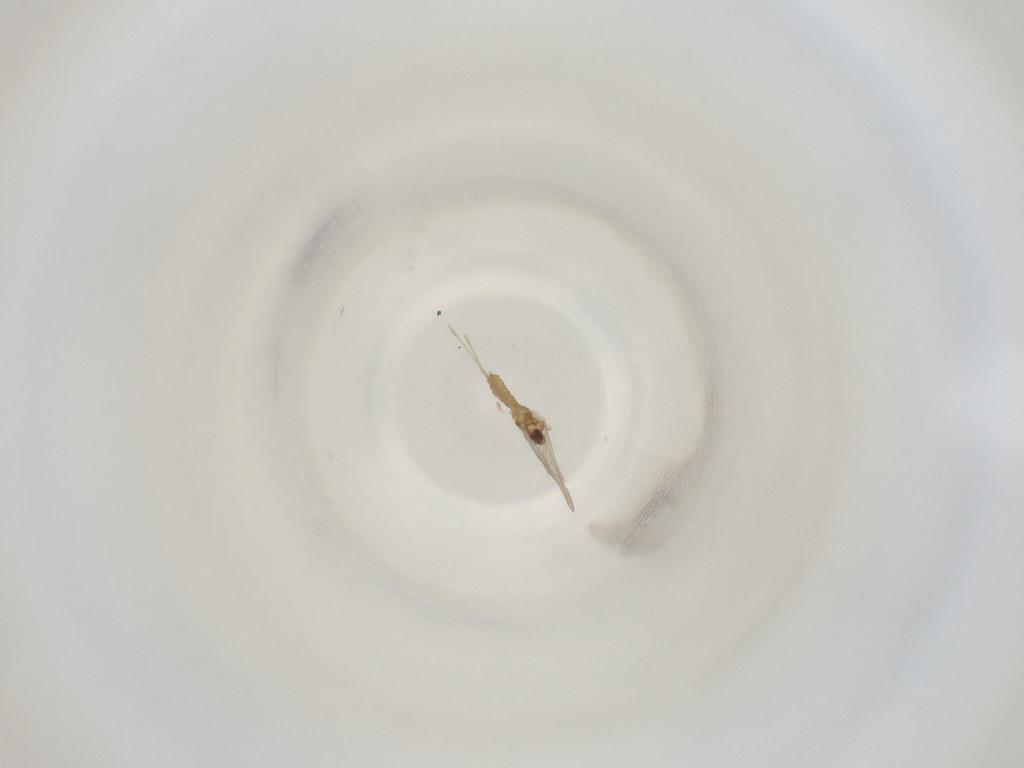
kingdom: Animalia
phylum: Arthropoda
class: Insecta
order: Diptera
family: Cecidomyiidae
